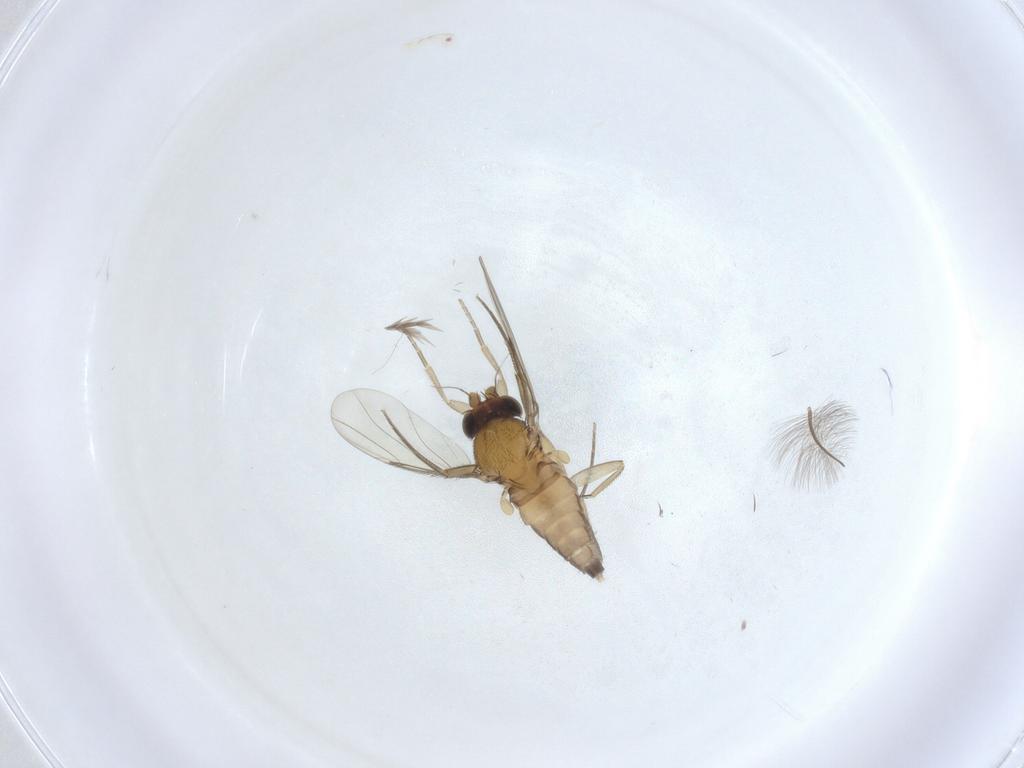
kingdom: Animalia
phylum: Arthropoda
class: Insecta
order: Diptera
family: Phoridae
